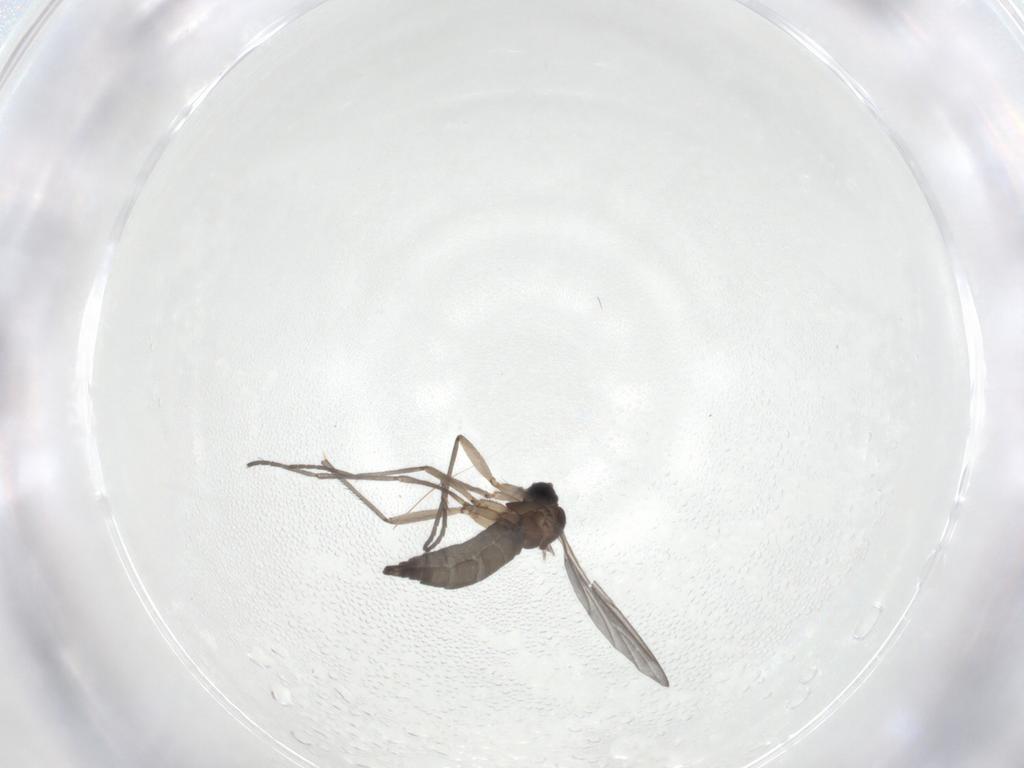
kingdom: Animalia
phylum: Arthropoda
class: Insecta
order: Diptera
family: Cecidomyiidae
